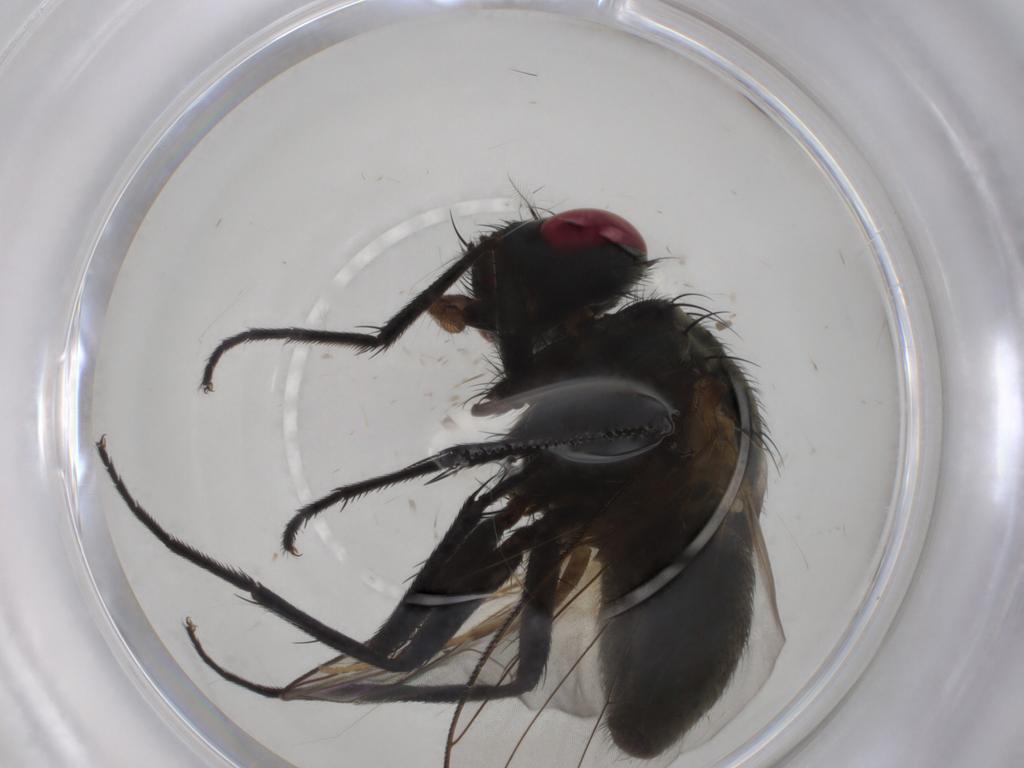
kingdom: Animalia
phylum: Arthropoda
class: Insecta
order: Diptera
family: Muscidae
